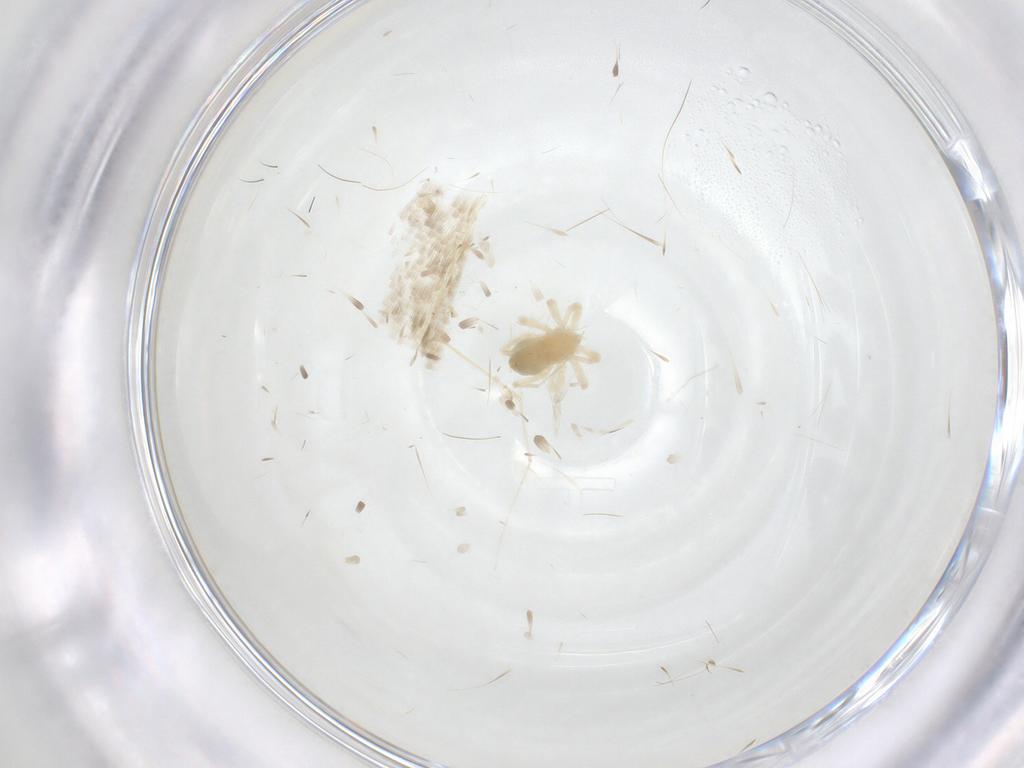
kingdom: Animalia
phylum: Arthropoda
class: Arachnida
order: Trombidiformes
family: Anystidae
